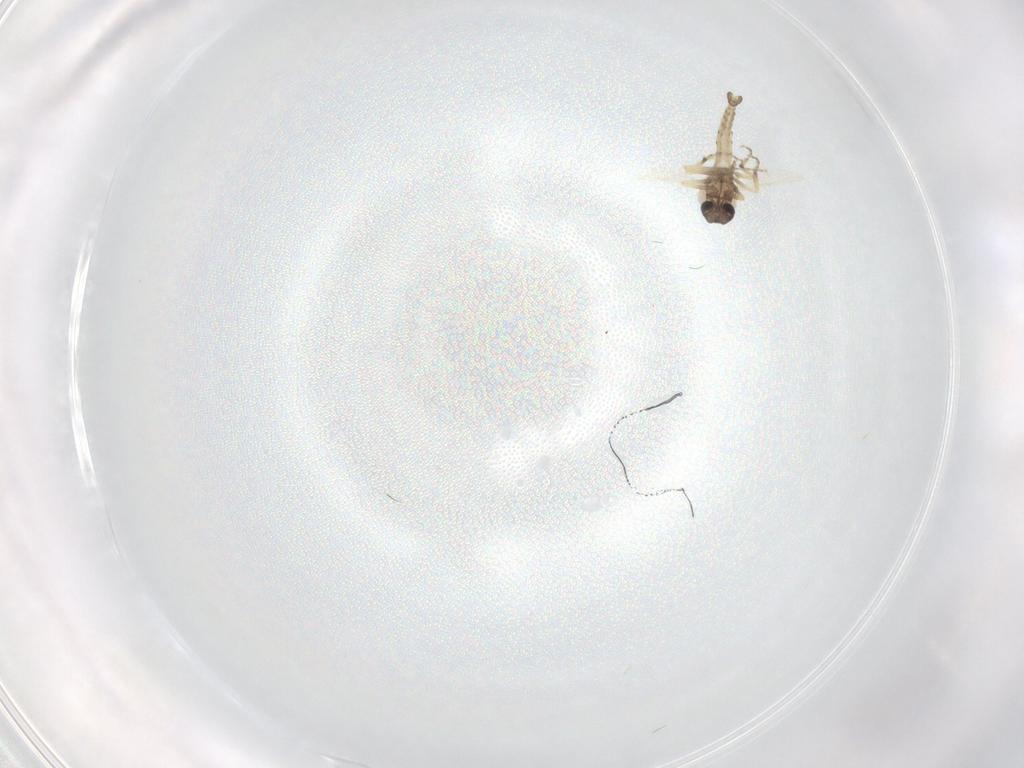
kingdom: Animalia
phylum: Arthropoda
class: Insecta
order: Diptera
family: Ceratopogonidae
